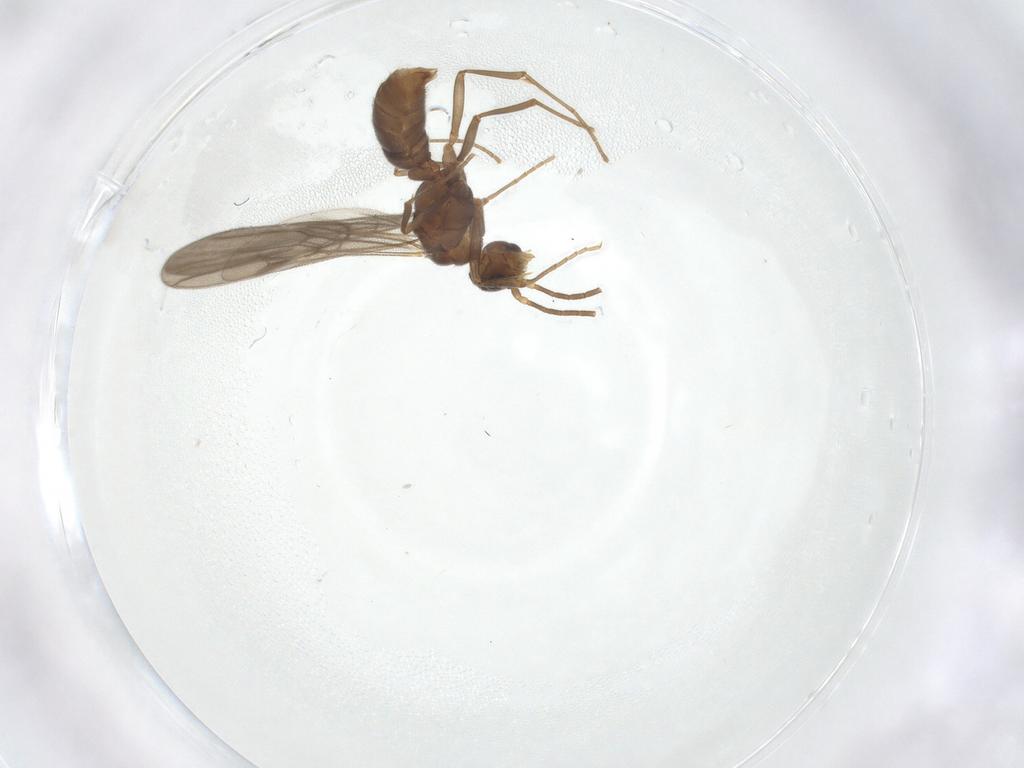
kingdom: Animalia
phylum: Arthropoda
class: Insecta
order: Hymenoptera
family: Formicidae
